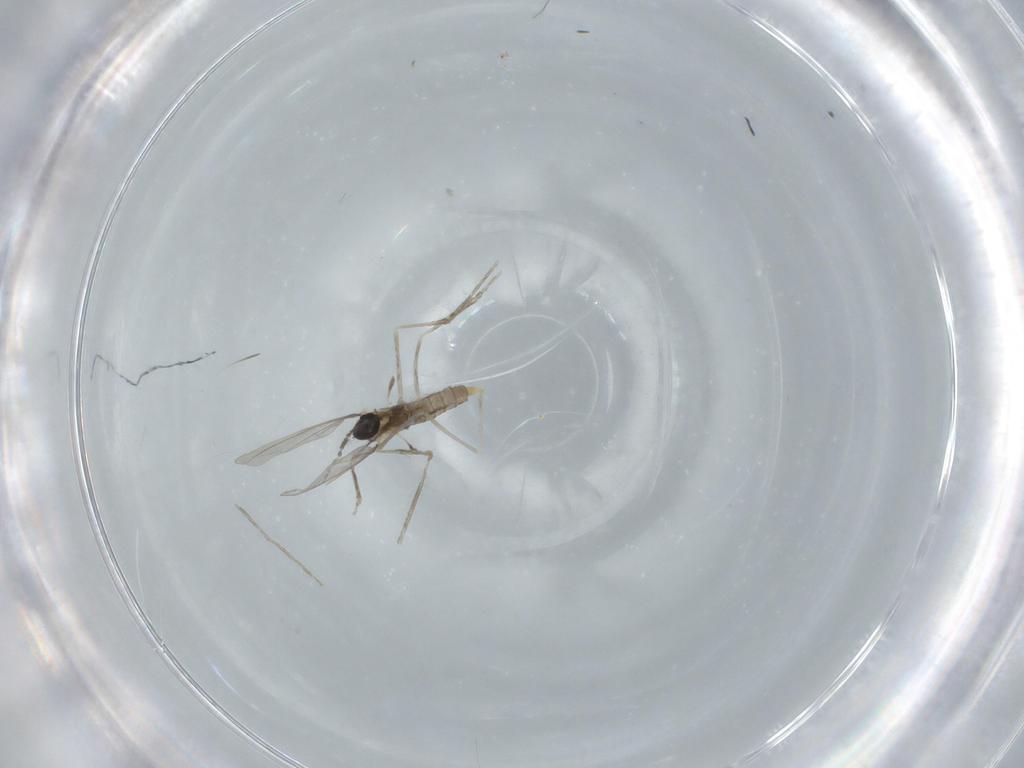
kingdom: Animalia
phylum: Arthropoda
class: Insecta
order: Diptera
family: Cecidomyiidae
